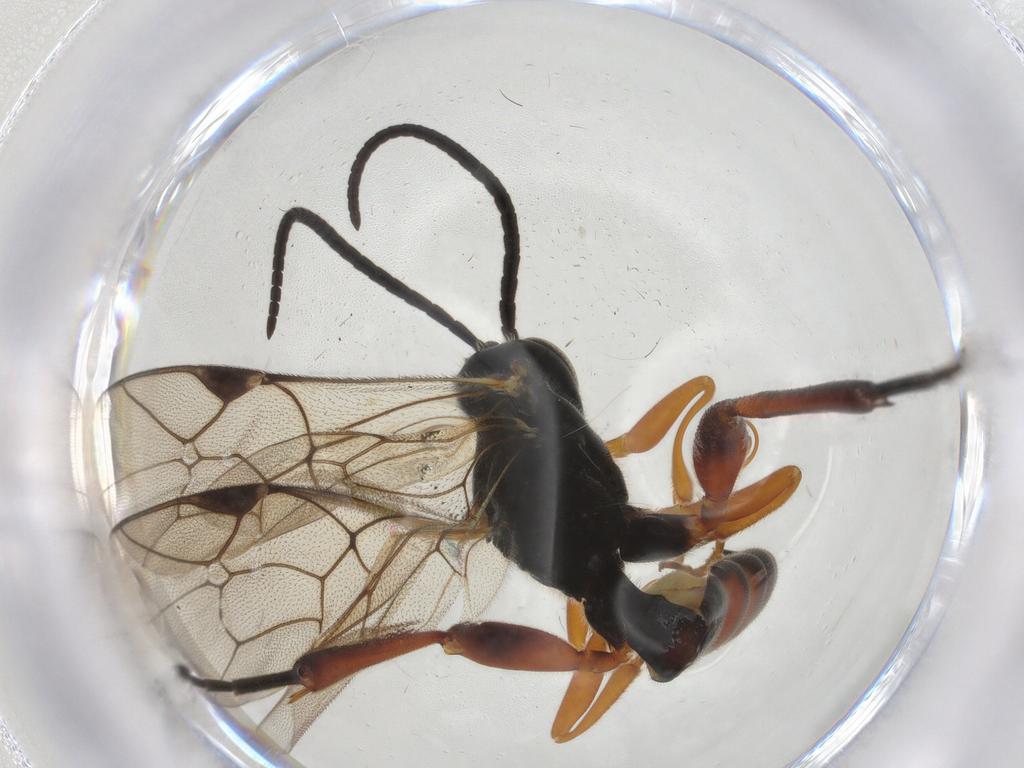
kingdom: Animalia
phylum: Arthropoda
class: Insecta
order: Hymenoptera
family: Ichneumonidae
